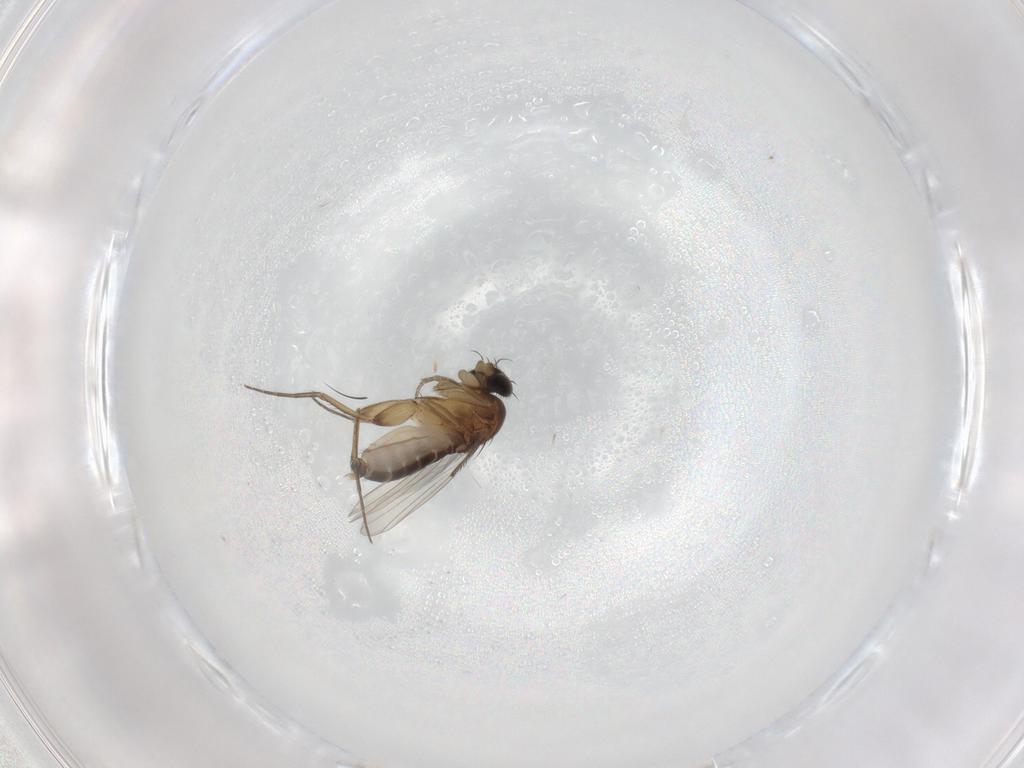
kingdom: Animalia
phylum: Arthropoda
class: Insecta
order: Diptera
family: Phoridae
